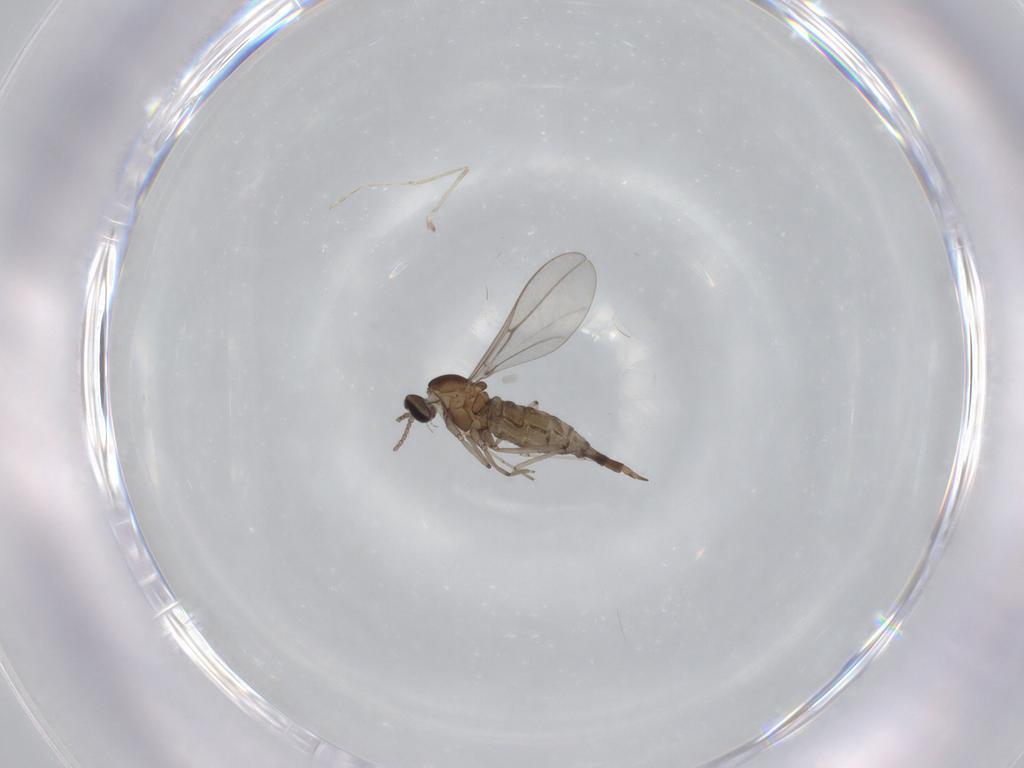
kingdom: Animalia
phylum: Arthropoda
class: Insecta
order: Diptera
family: Cecidomyiidae
